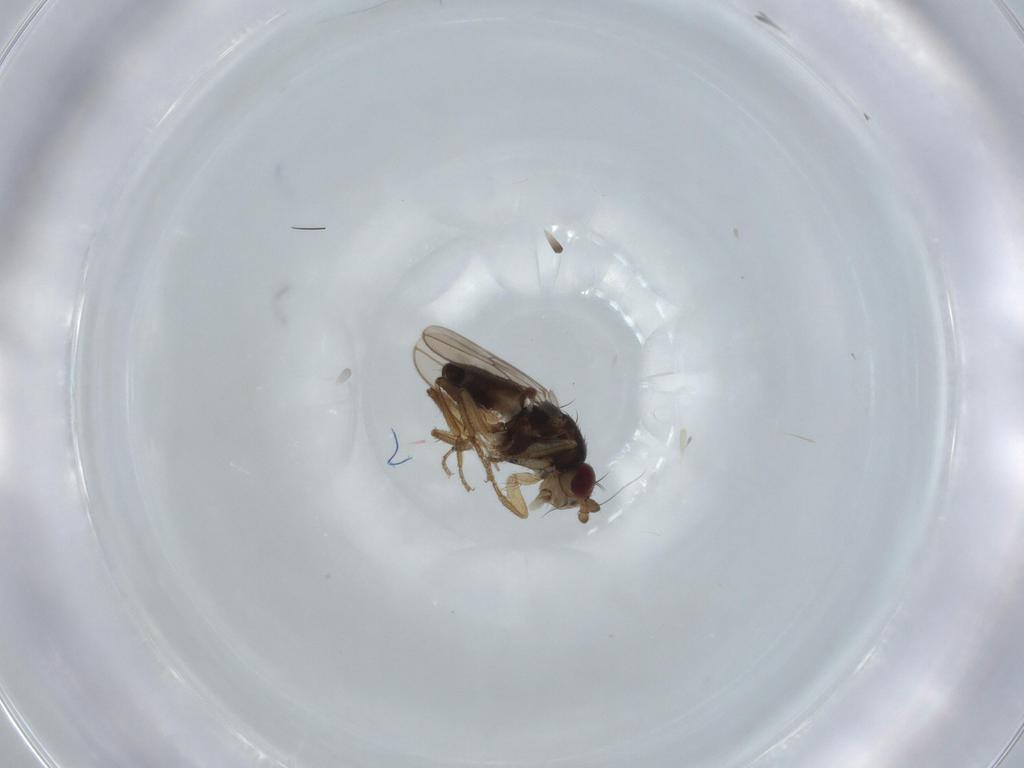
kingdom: Animalia
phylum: Arthropoda
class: Insecta
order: Diptera
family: Sphaeroceridae
